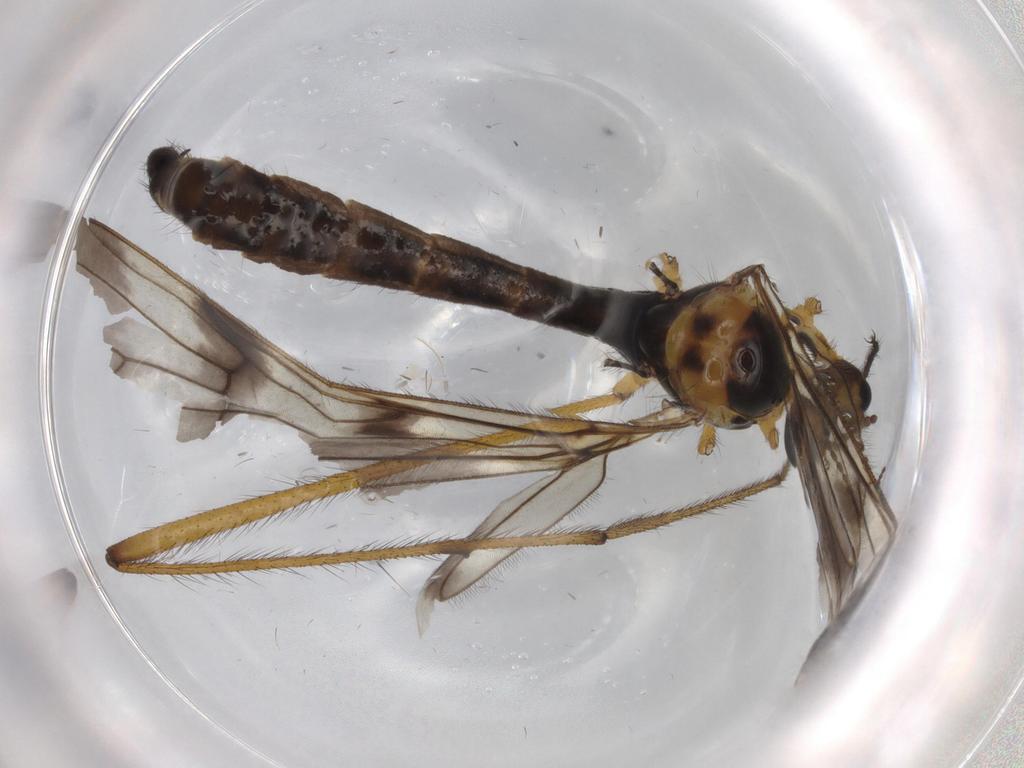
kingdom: Animalia
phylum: Arthropoda
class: Insecta
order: Diptera
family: Limoniidae
